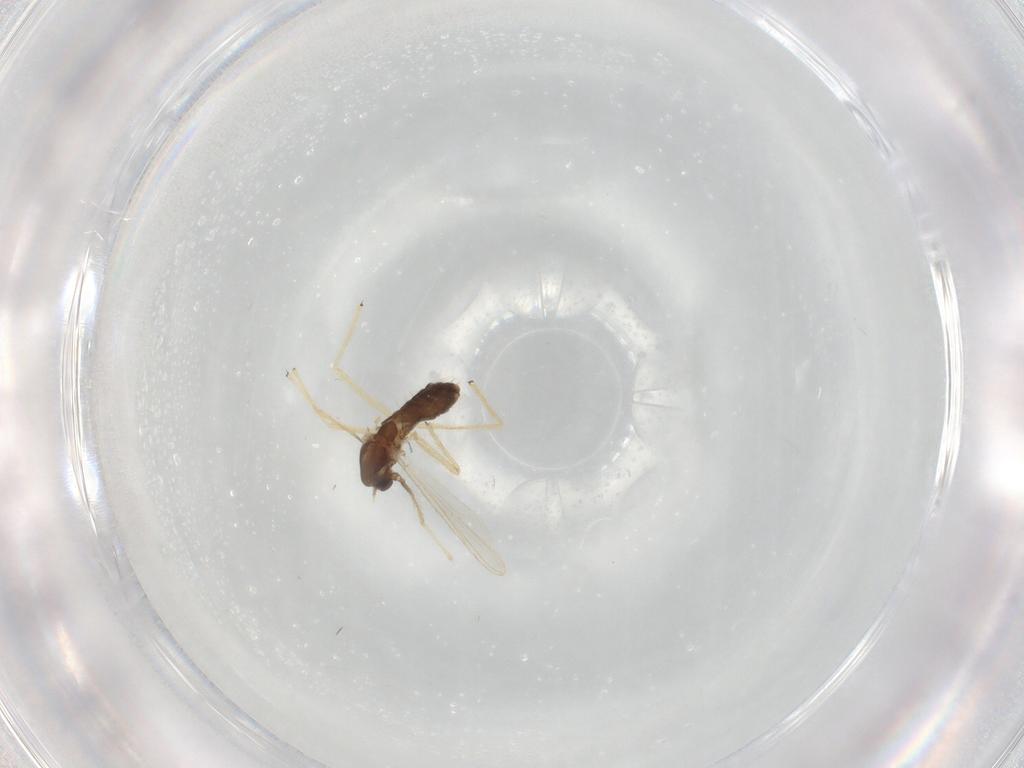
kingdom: Animalia
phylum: Arthropoda
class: Insecta
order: Diptera
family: Chironomidae
